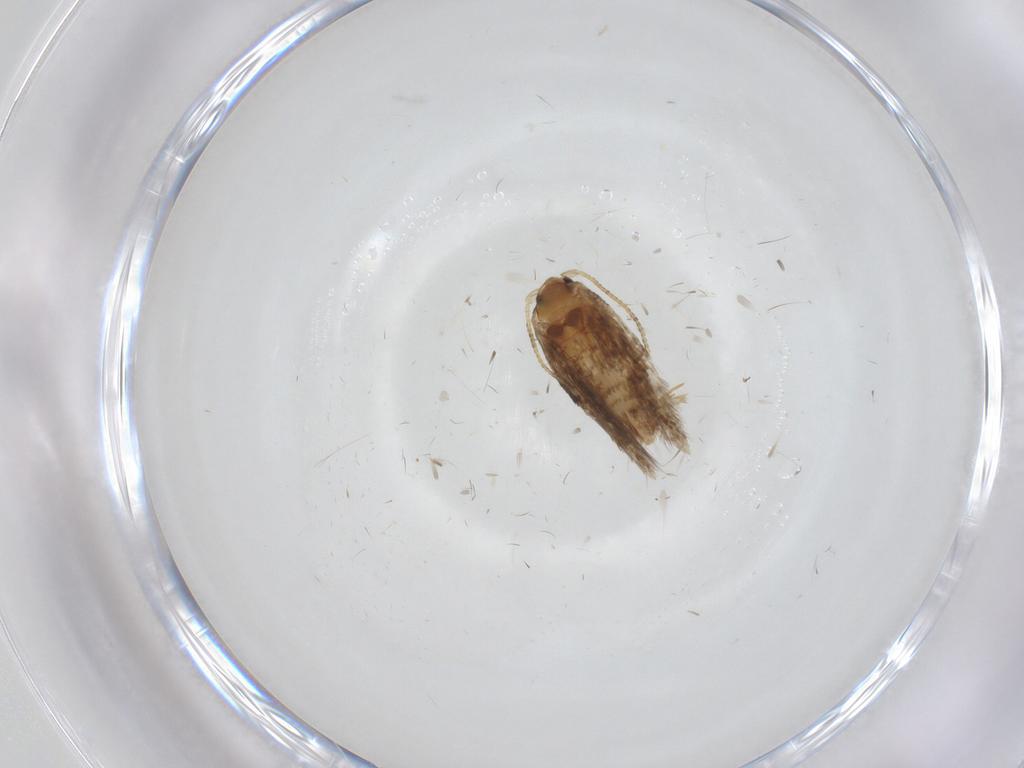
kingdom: Animalia
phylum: Arthropoda
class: Insecta
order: Lepidoptera
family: Nepticulidae
